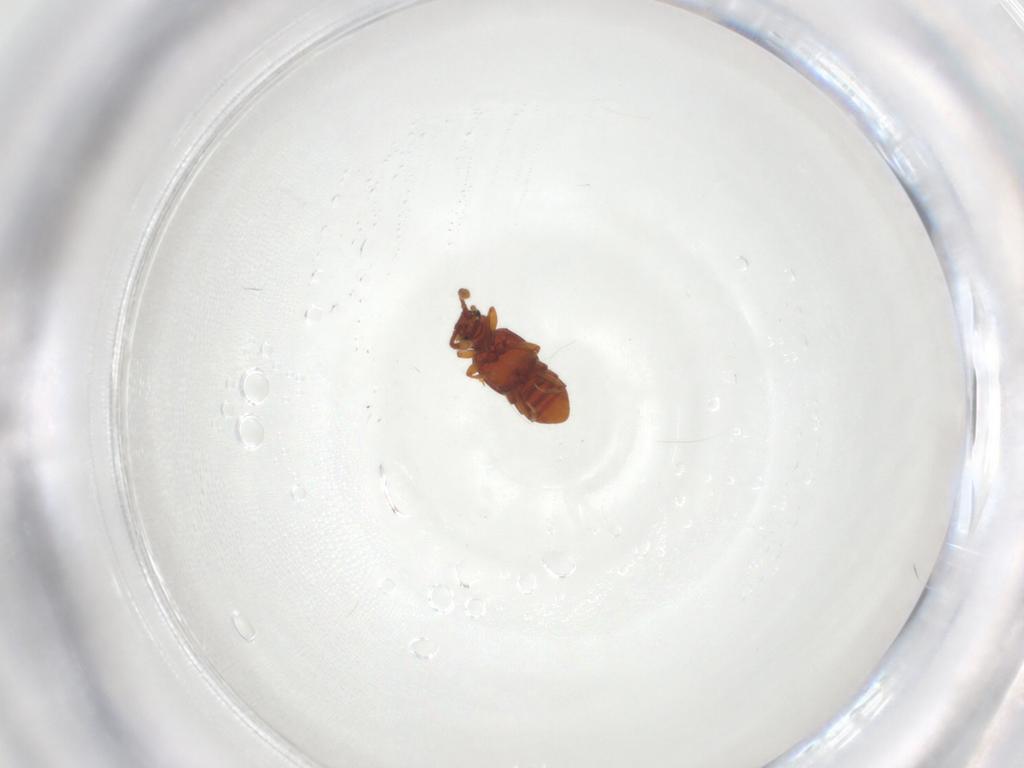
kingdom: Animalia
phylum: Arthropoda
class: Insecta
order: Coleoptera
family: Staphylinidae
